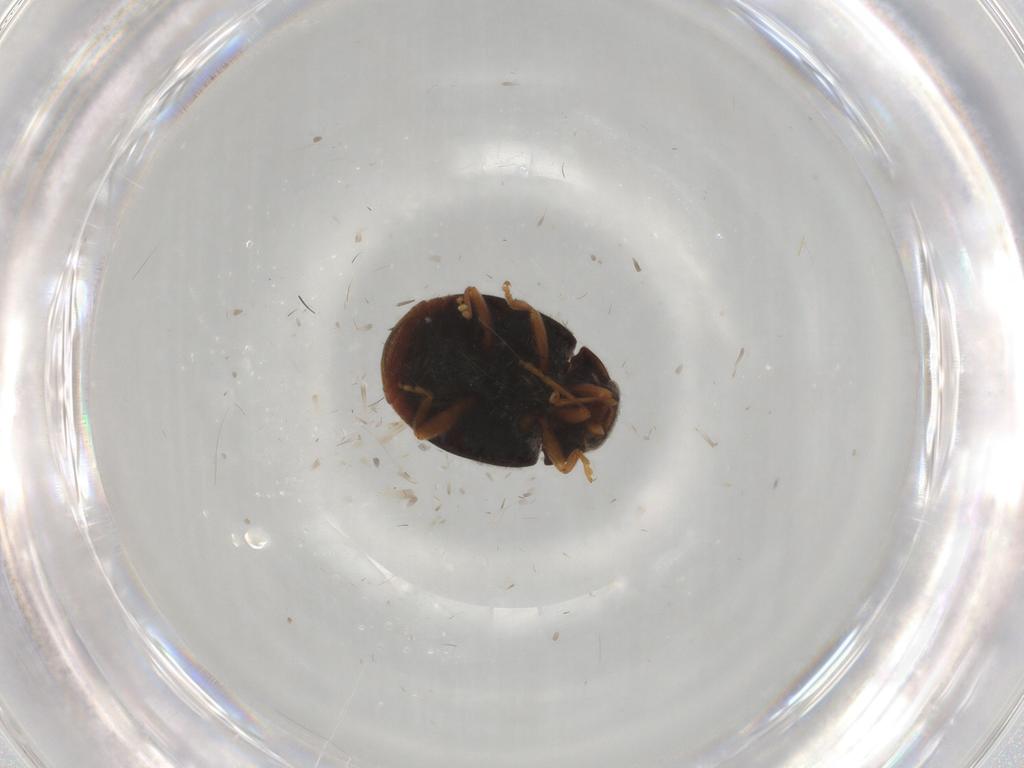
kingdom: Animalia
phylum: Arthropoda
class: Insecta
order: Coleoptera
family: Coccinellidae
